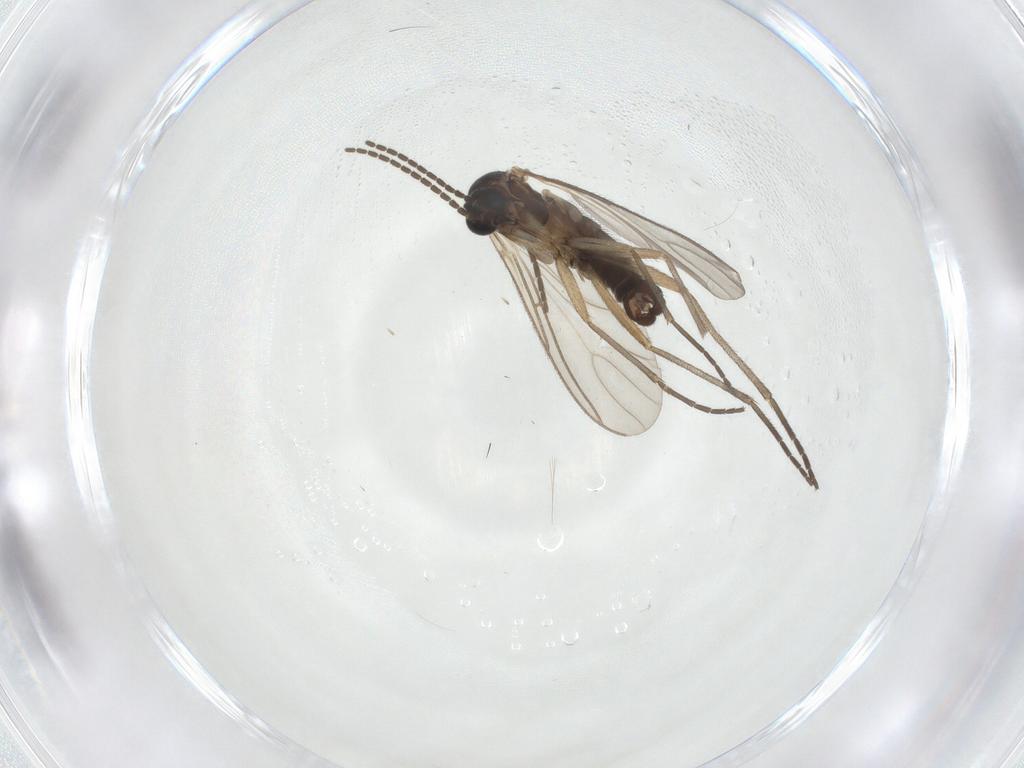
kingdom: Animalia
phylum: Arthropoda
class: Insecta
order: Diptera
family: Sciaridae
